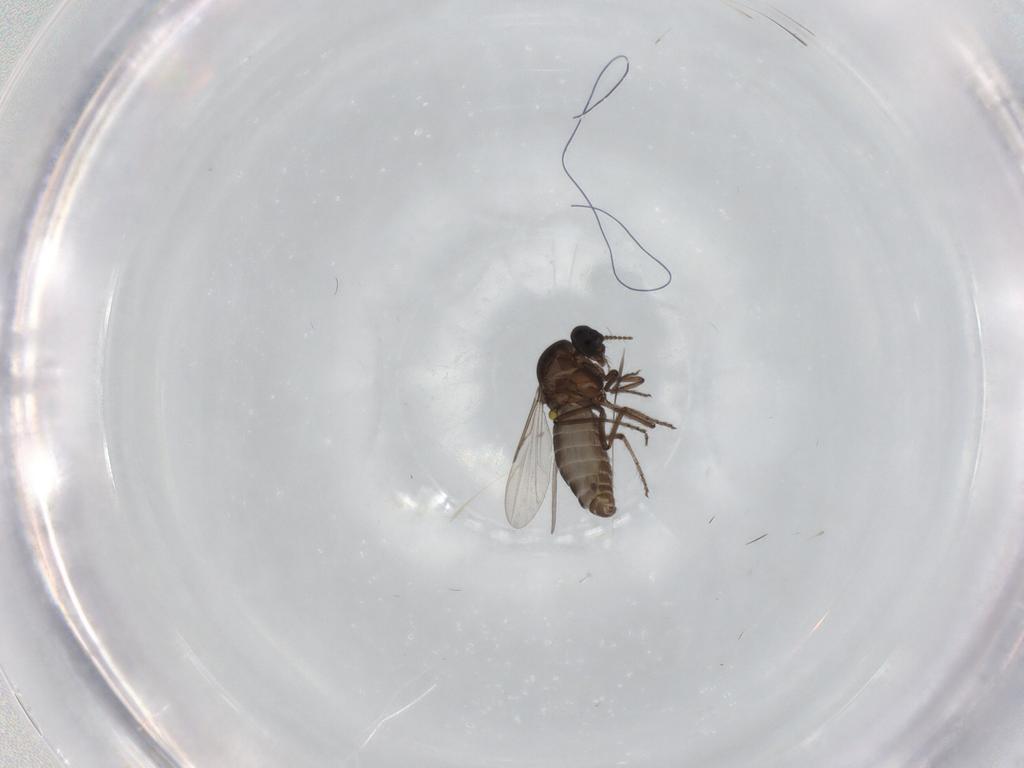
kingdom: Animalia
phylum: Arthropoda
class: Insecta
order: Diptera
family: Ceratopogonidae
